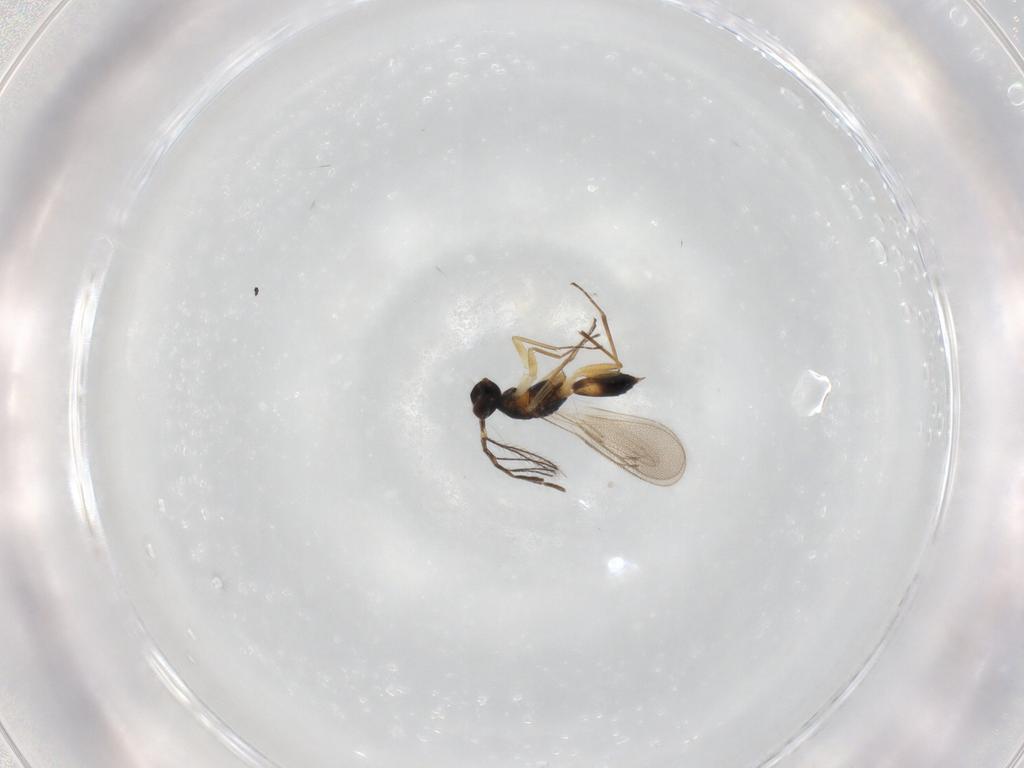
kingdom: Animalia
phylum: Arthropoda
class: Insecta
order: Hymenoptera
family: Eulophidae
